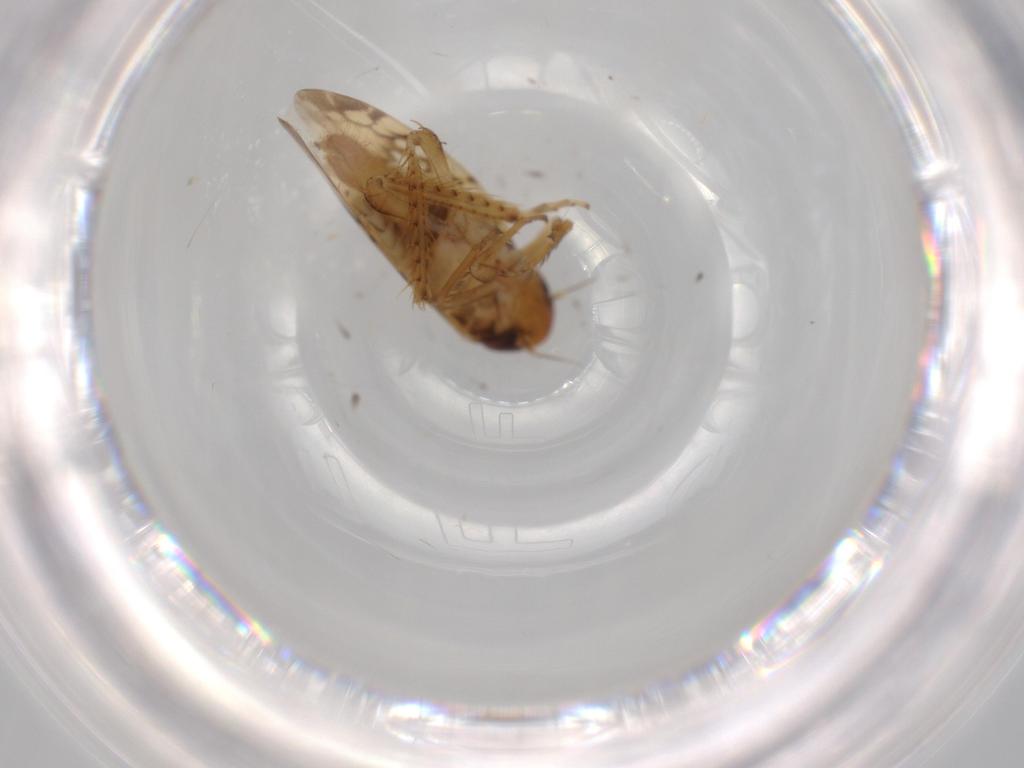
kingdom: Animalia
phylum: Arthropoda
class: Insecta
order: Hemiptera
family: Cicadellidae
